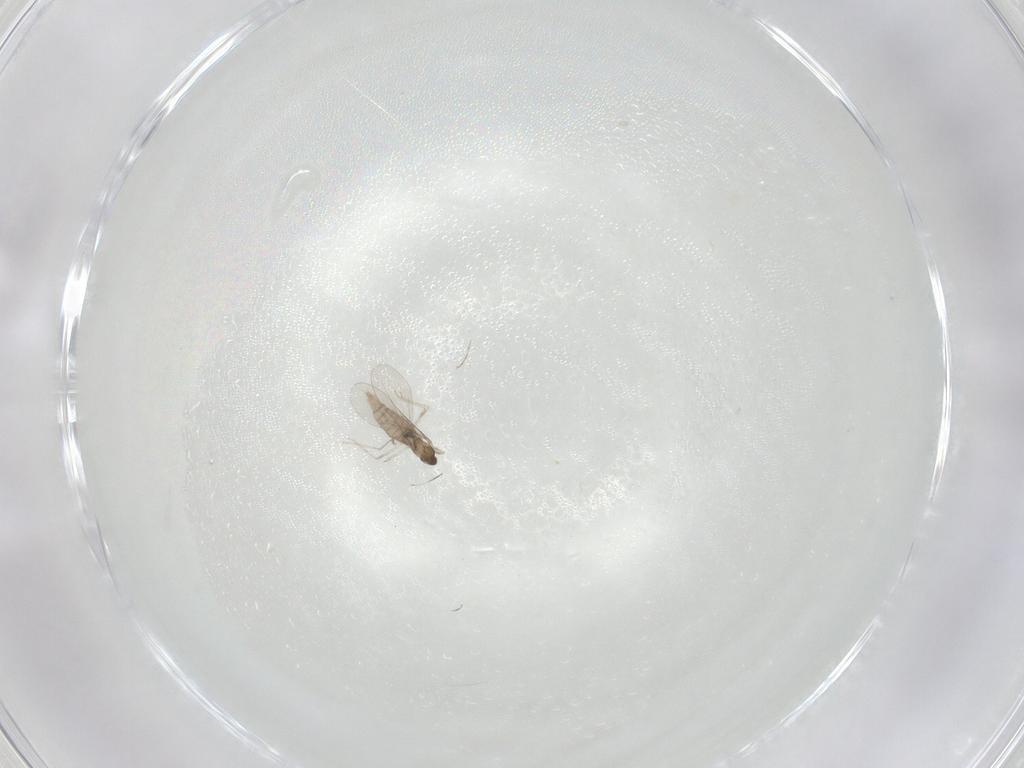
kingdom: Animalia
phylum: Arthropoda
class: Insecta
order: Diptera
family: Cecidomyiidae
